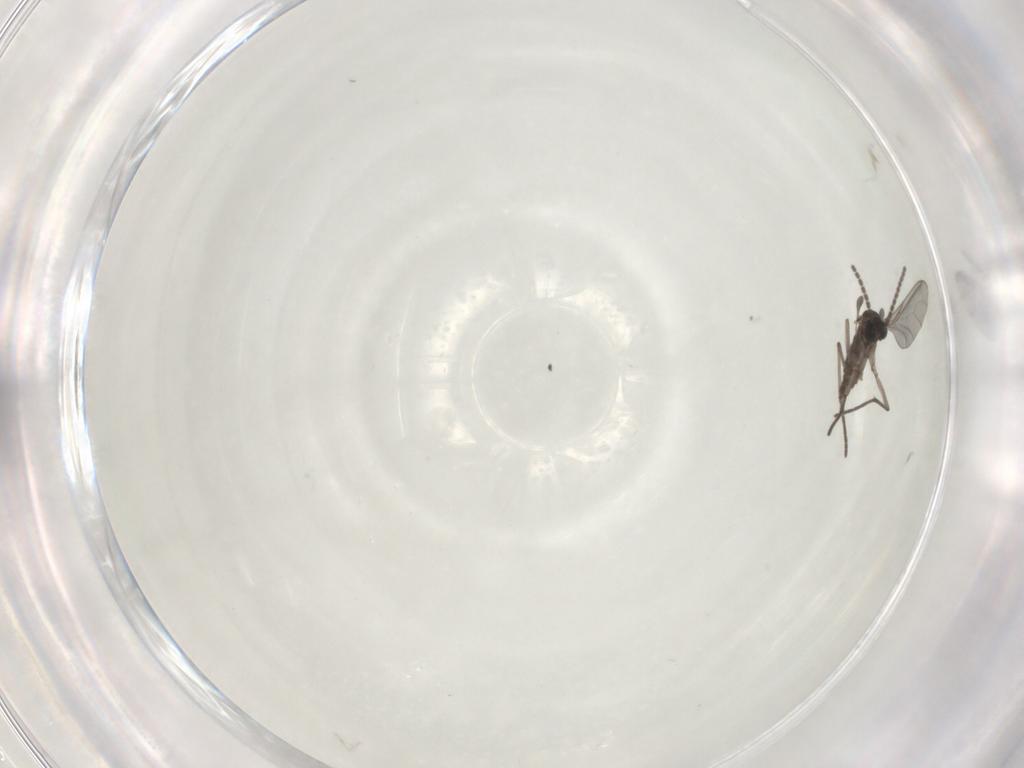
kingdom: Animalia
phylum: Arthropoda
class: Insecta
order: Diptera
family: Sciaridae
